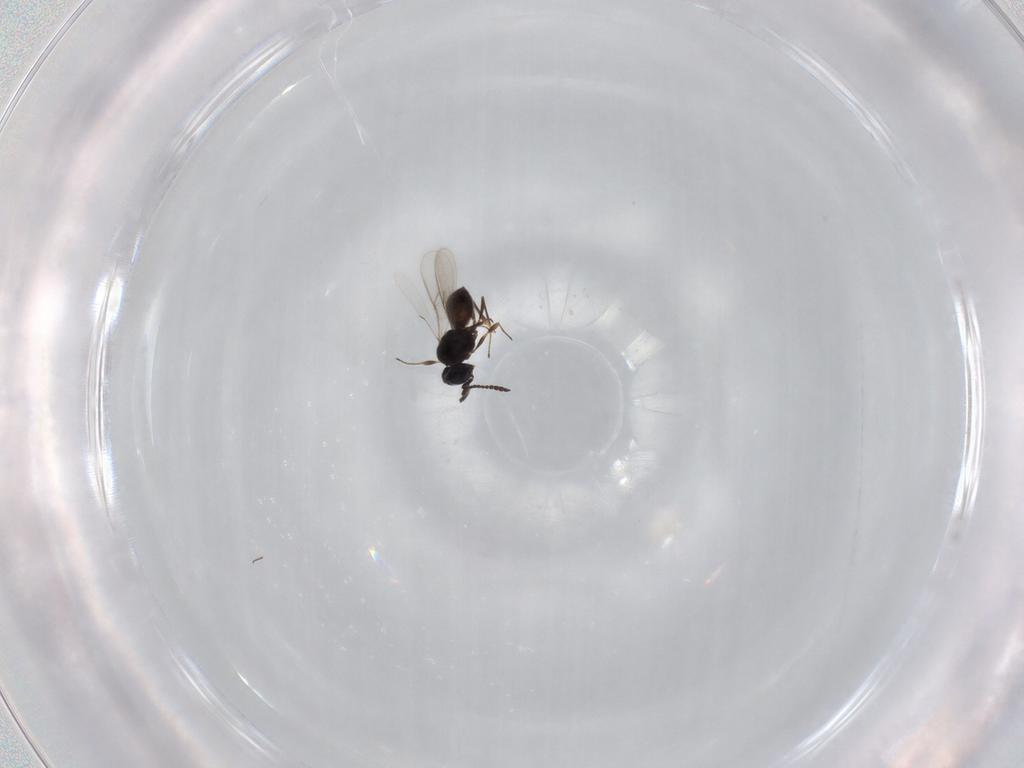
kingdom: Animalia
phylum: Arthropoda
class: Insecta
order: Hymenoptera
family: Scelionidae
